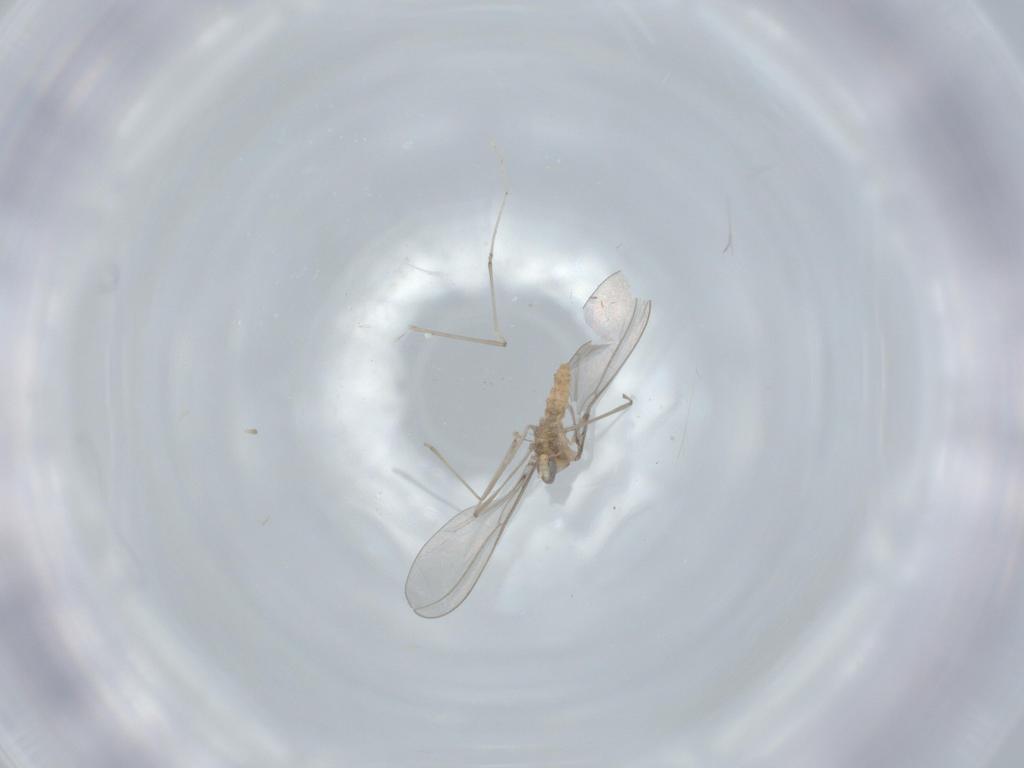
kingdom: Animalia
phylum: Arthropoda
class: Insecta
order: Diptera
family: Cecidomyiidae
